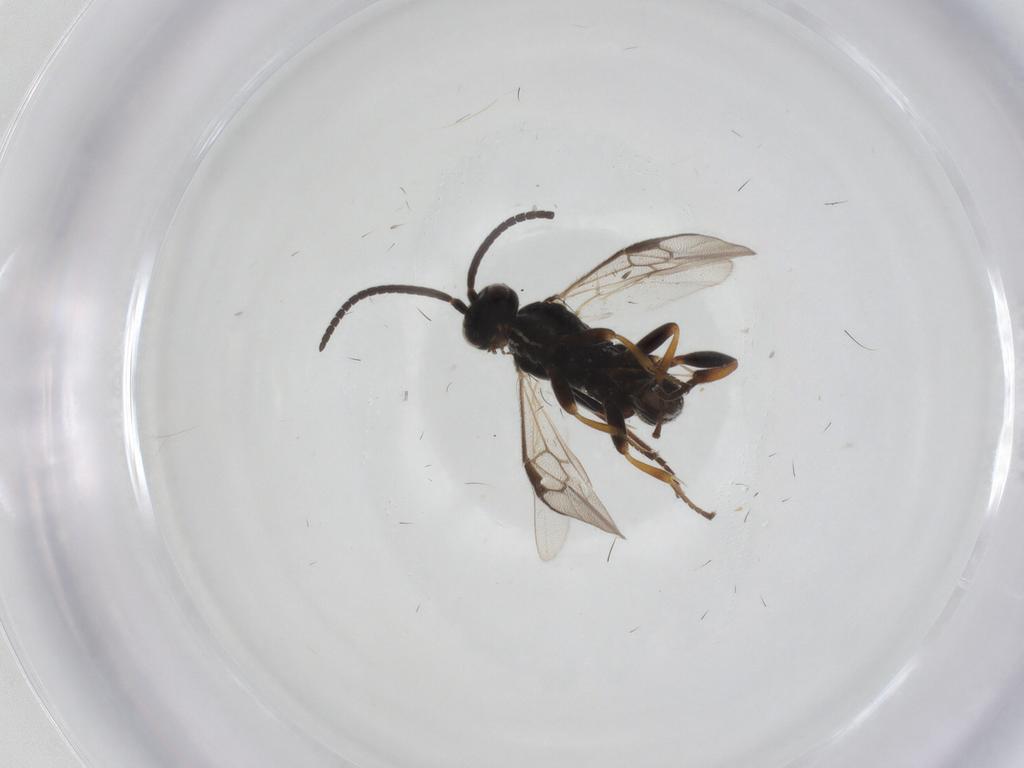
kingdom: Animalia
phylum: Arthropoda
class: Insecta
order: Hymenoptera
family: Braconidae
